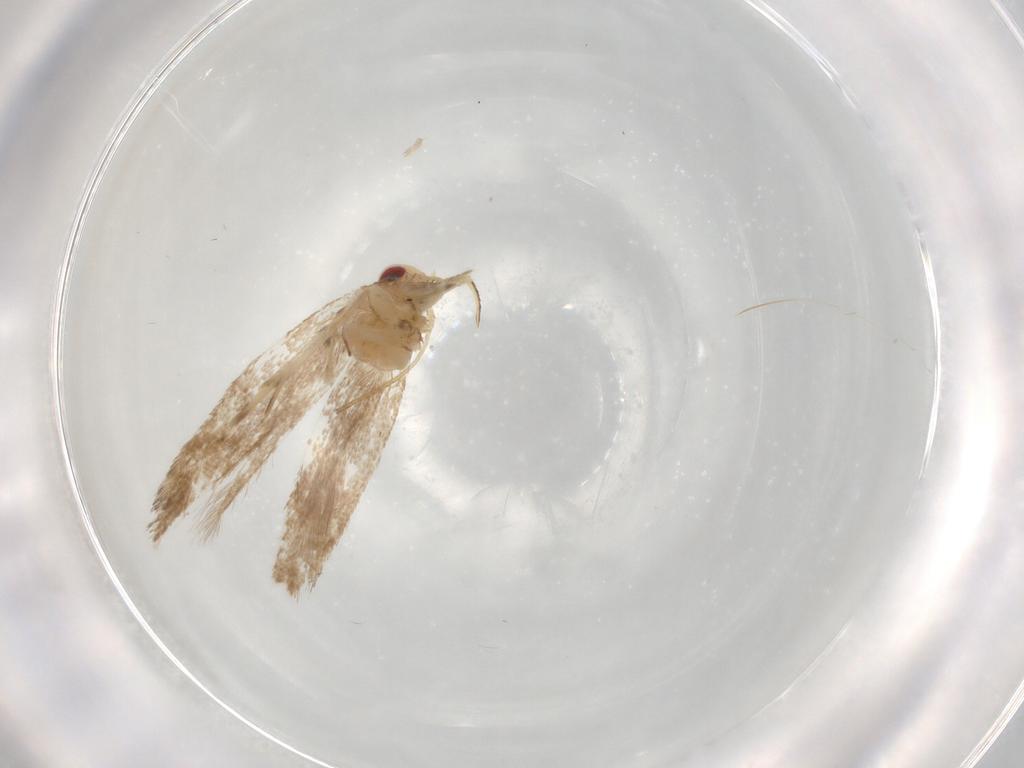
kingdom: Animalia
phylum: Arthropoda
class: Insecta
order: Lepidoptera
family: Cosmopterigidae
